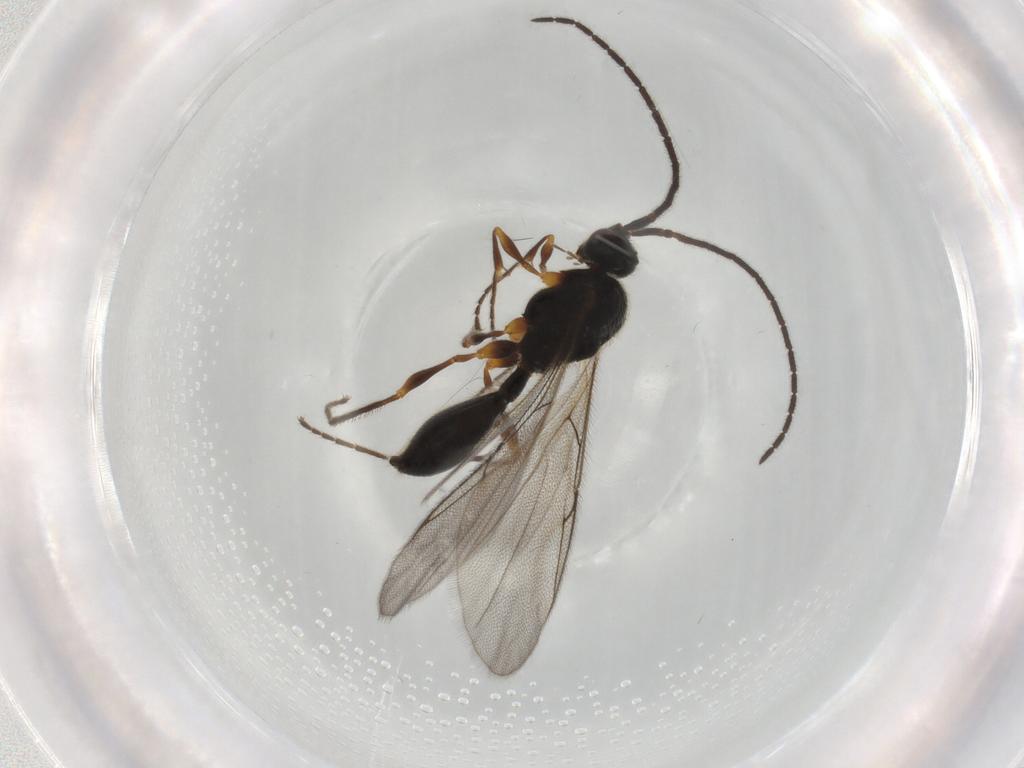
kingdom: Animalia
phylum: Arthropoda
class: Insecta
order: Hymenoptera
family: Diapriidae
